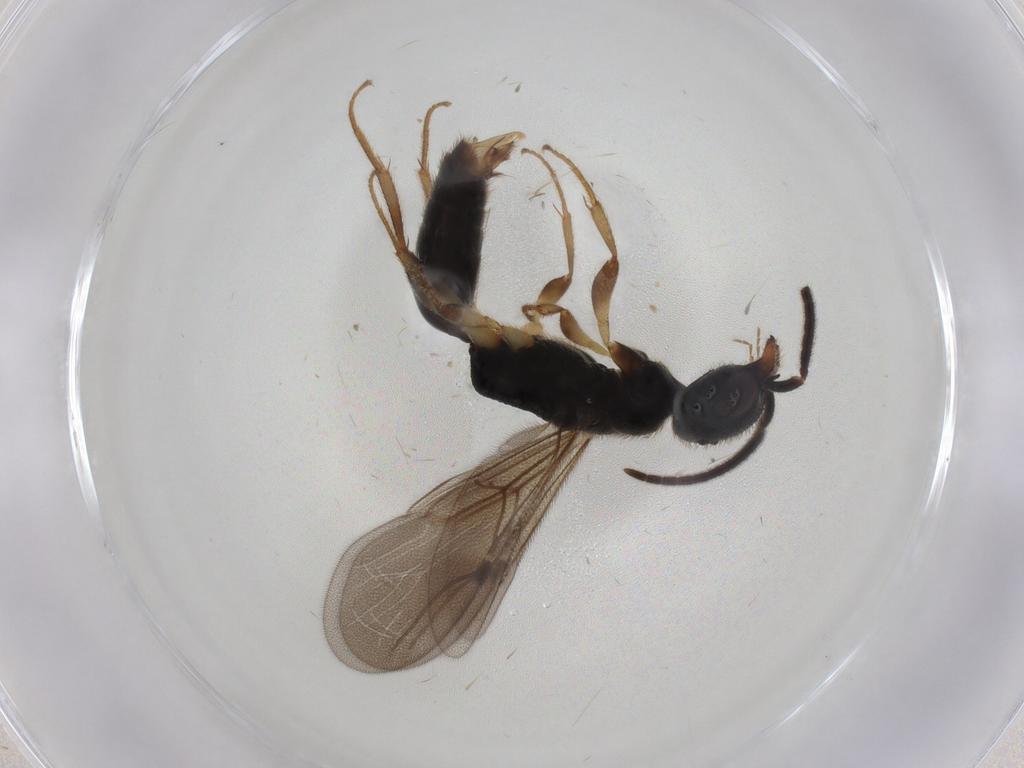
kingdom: Animalia
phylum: Arthropoda
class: Insecta
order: Hymenoptera
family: Bethylidae
